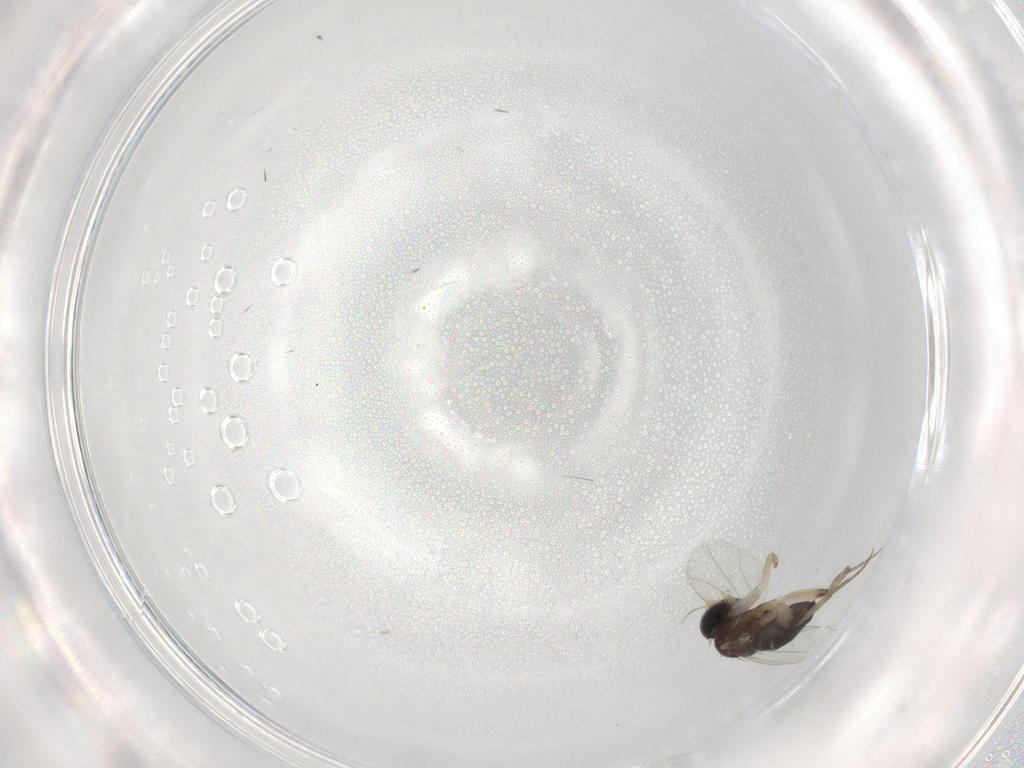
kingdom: Animalia
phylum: Arthropoda
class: Insecta
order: Diptera
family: Phoridae
